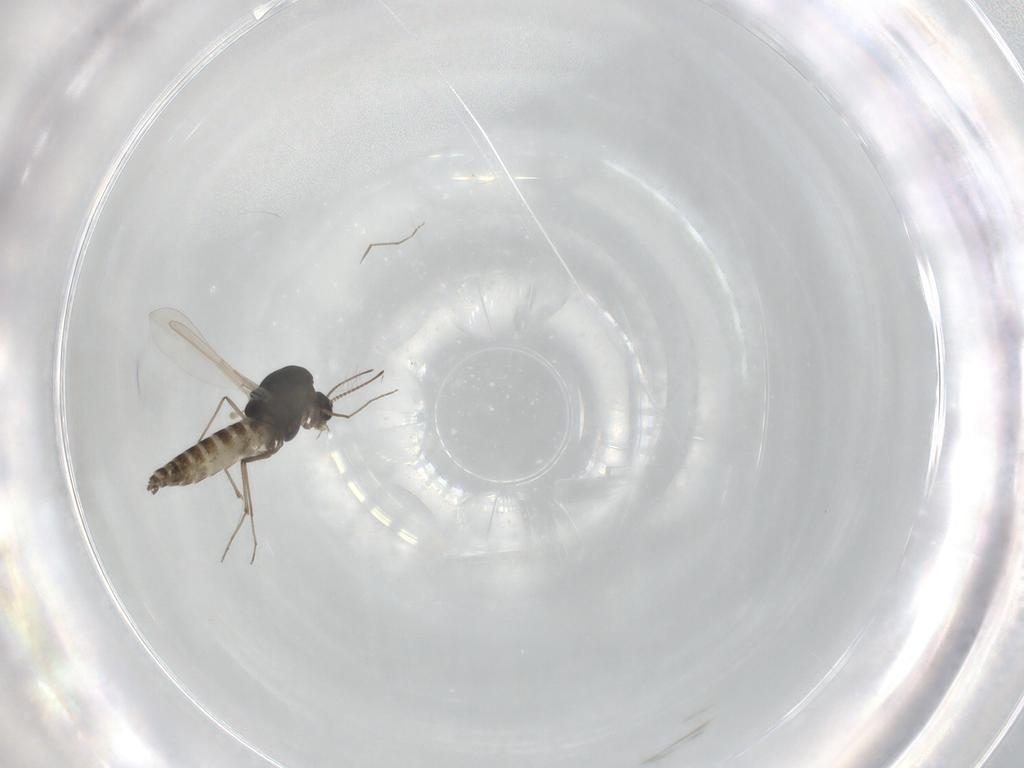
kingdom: Animalia
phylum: Arthropoda
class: Insecta
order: Diptera
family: Chironomidae
